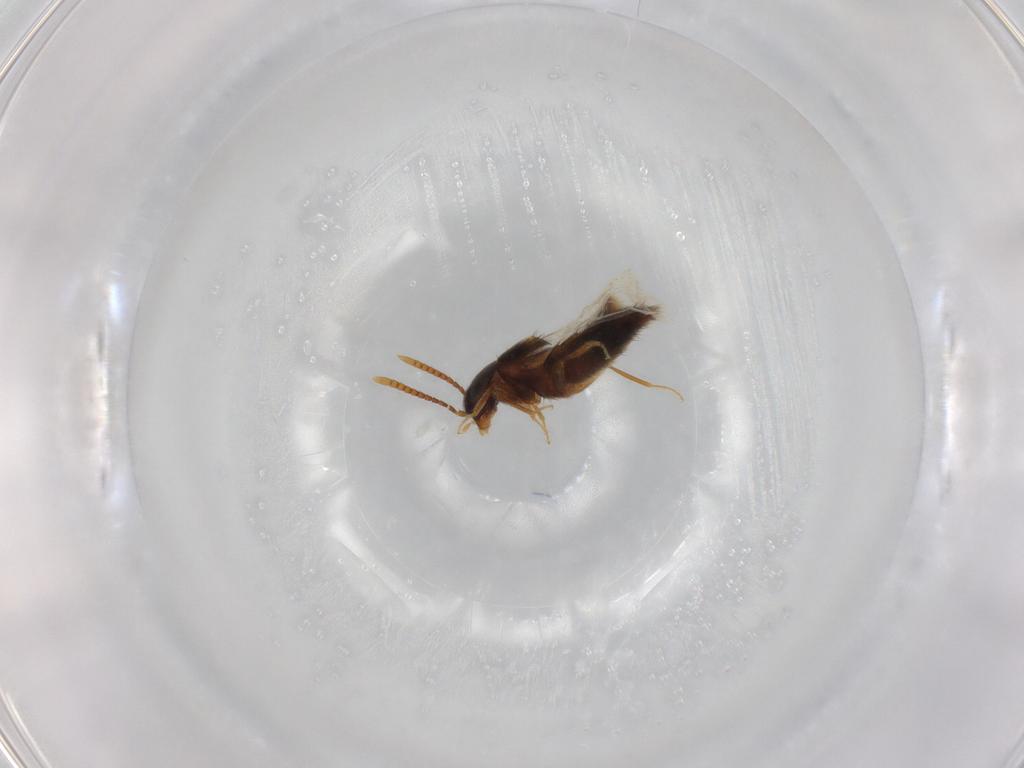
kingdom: Animalia
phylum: Arthropoda
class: Insecta
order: Coleoptera
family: Staphylinidae
